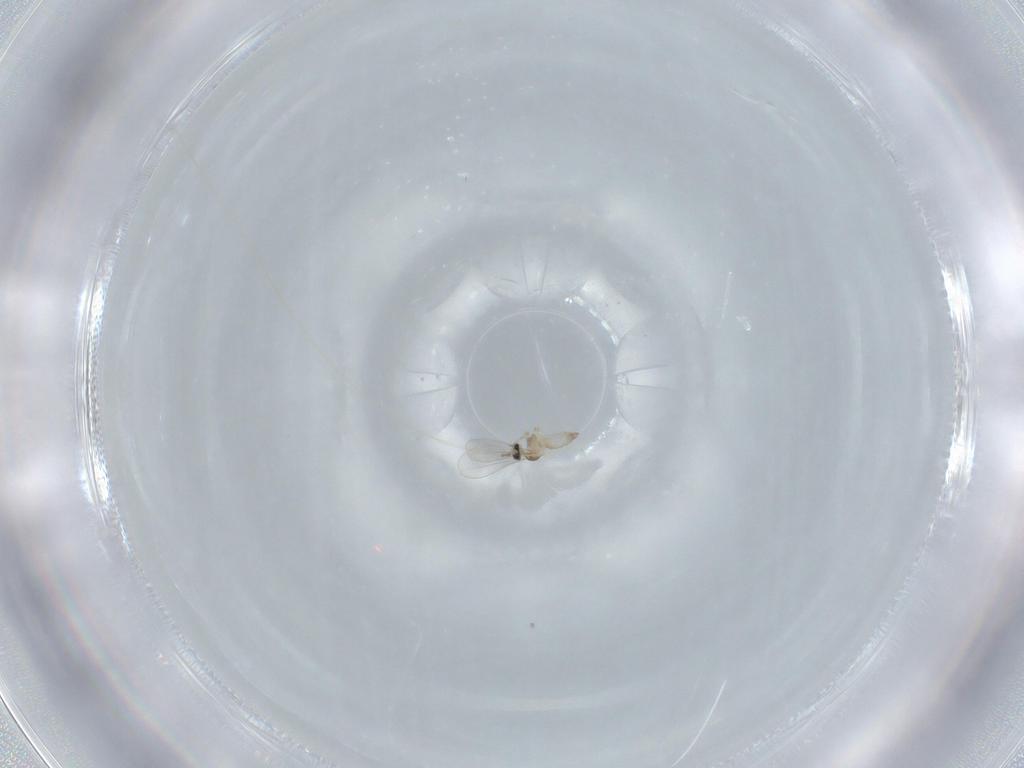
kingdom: Animalia
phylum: Arthropoda
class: Insecta
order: Diptera
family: Cecidomyiidae
